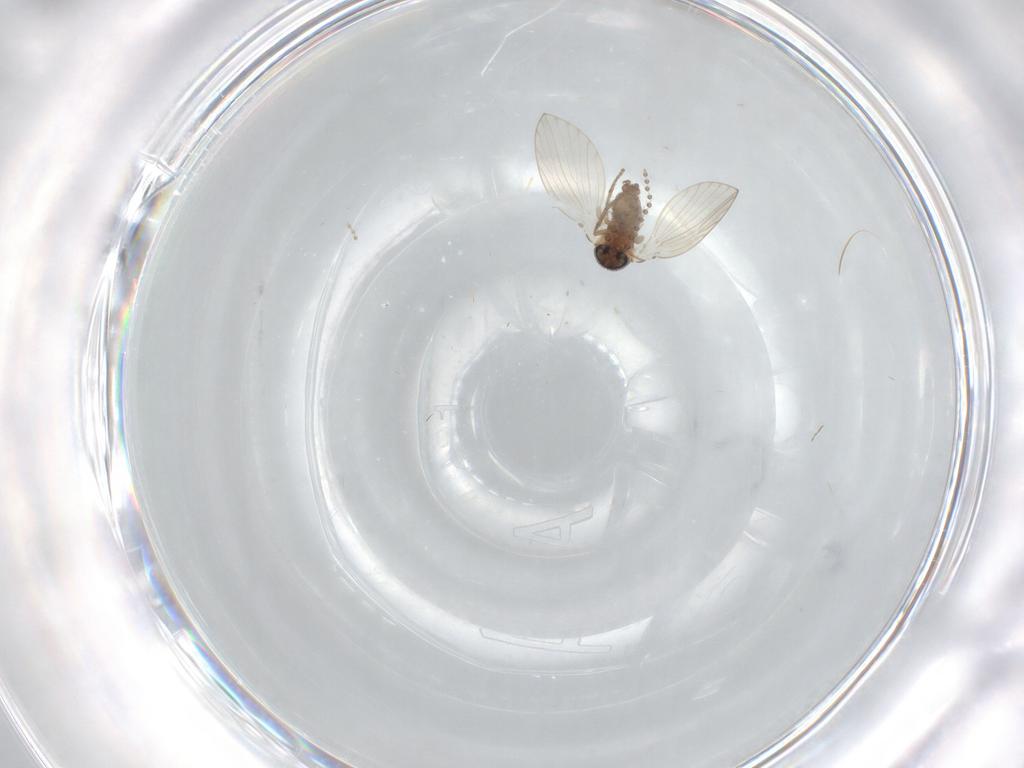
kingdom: Animalia
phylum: Arthropoda
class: Insecta
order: Diptera
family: Psychodidae
